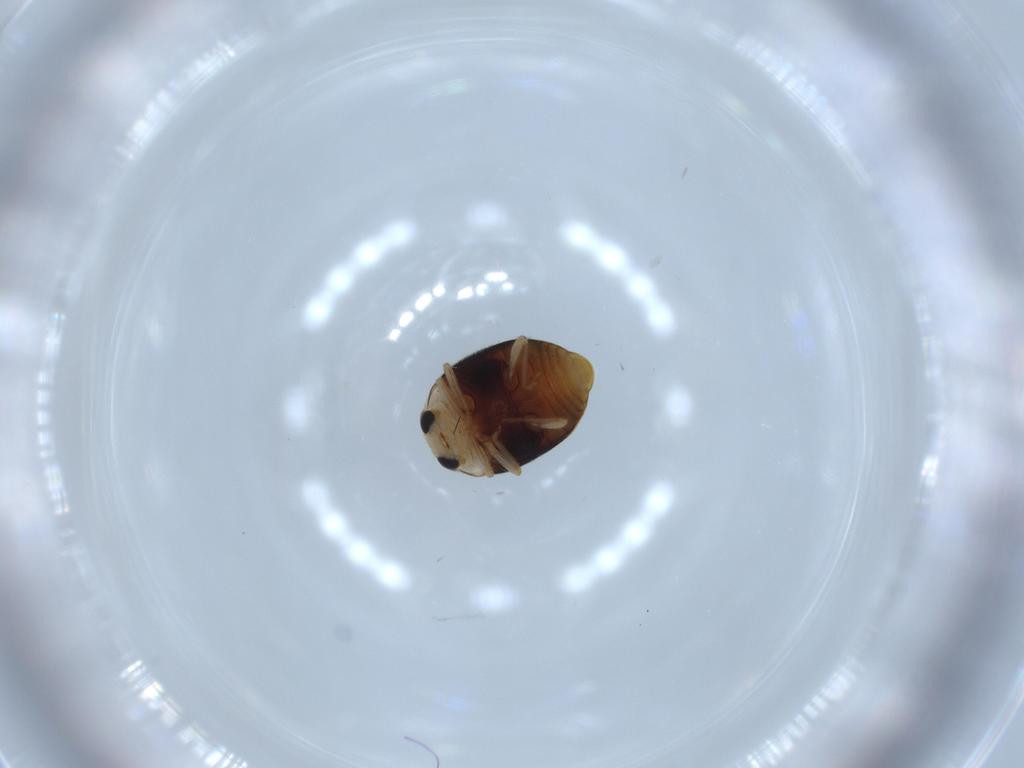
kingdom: Animalia
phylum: Arthropoda
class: Insecta
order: Coleoptera
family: Coccinellidae
